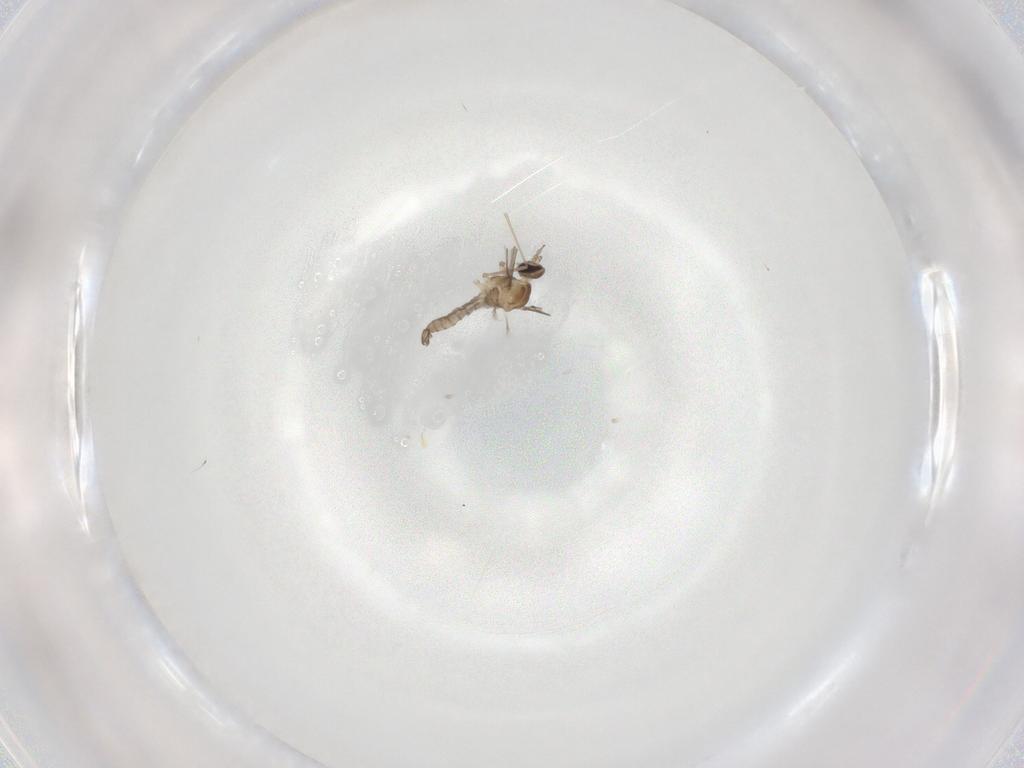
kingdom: Animalia
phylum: Arthropoda
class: Insecta
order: Diptera
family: Cecidomyiidae
